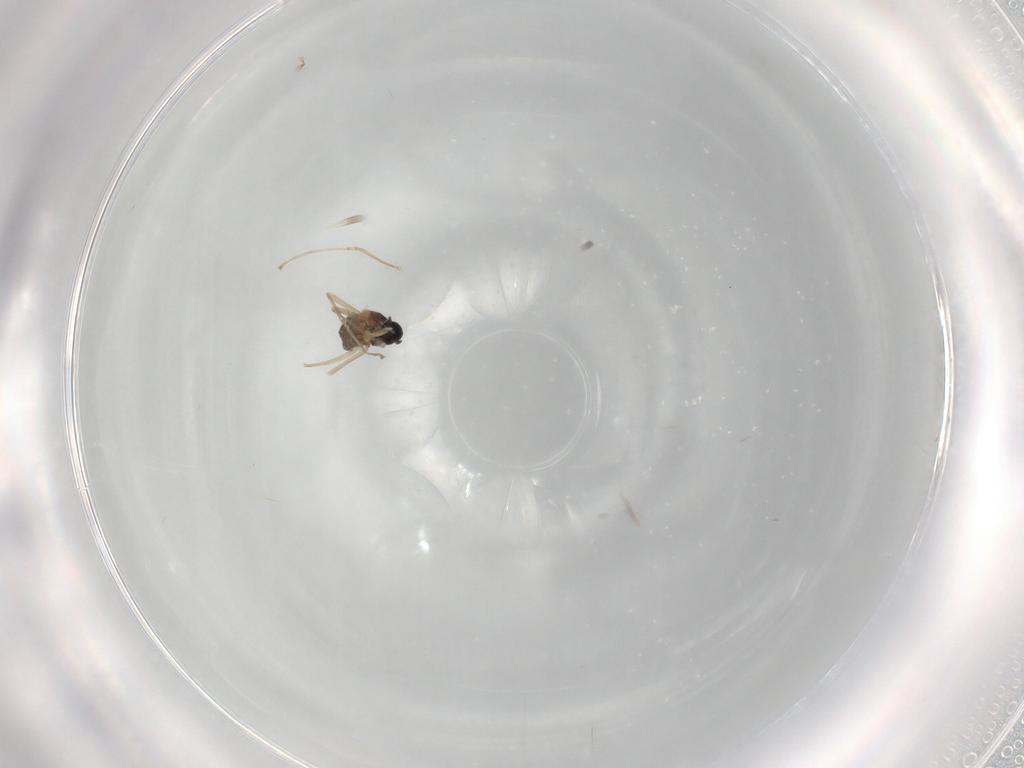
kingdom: Animalia
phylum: Arthropoda
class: Insecta
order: Diptera
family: Cecidomyiidae
